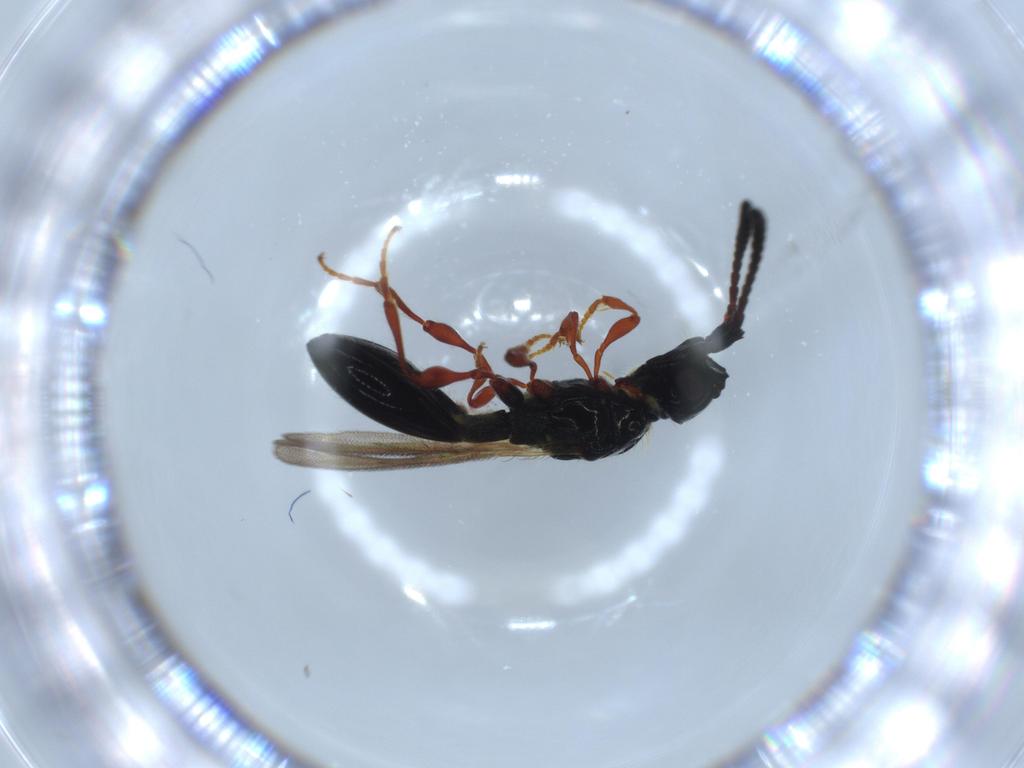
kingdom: Animalia
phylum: Arthropoda
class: Insecta
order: Hymenoptera
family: Diapriidae
